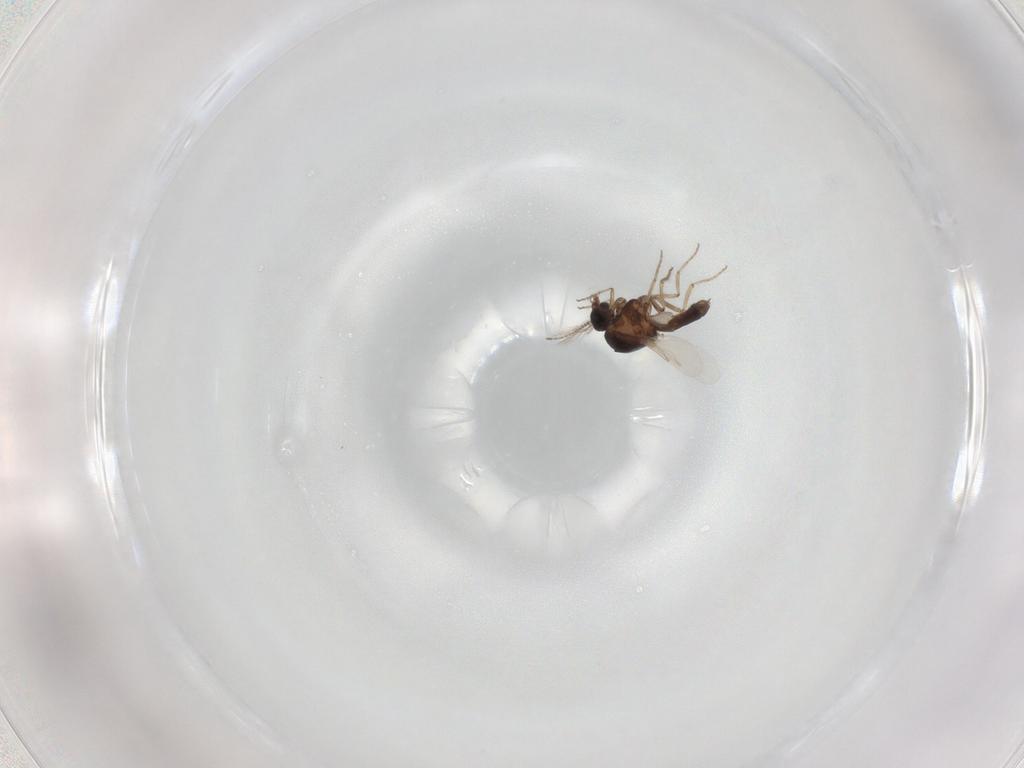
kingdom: Animalia
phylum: Arthropoda
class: Insecta
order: Diptera
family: Ceratopogonidae
